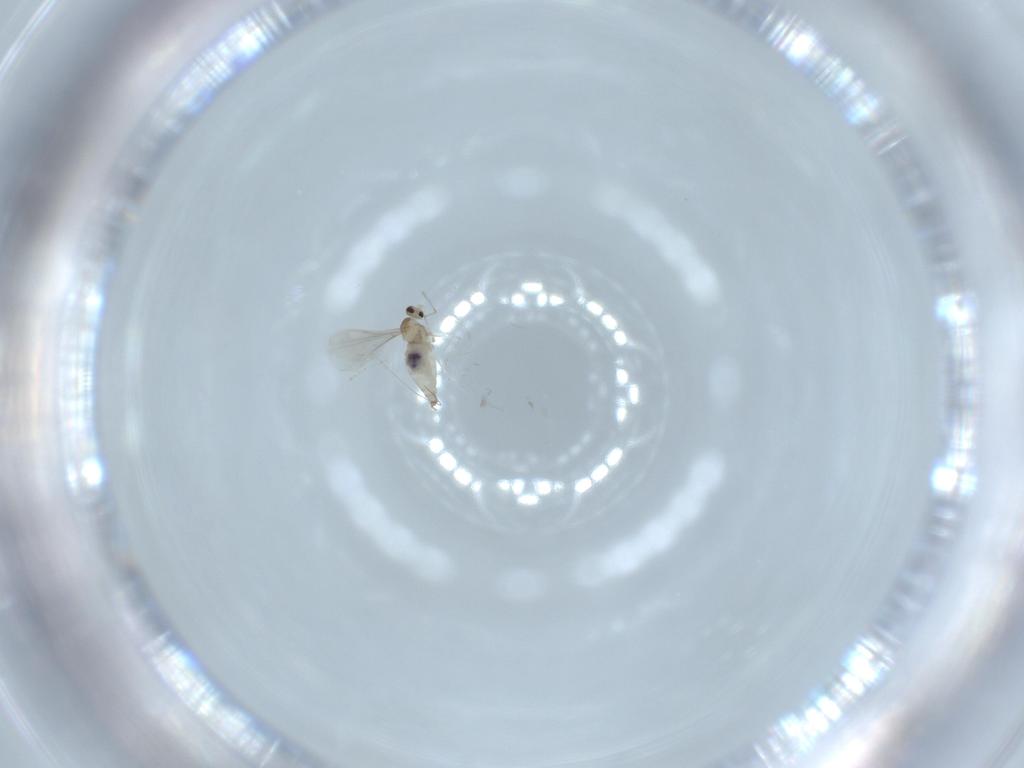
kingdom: Animalia
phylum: Arthropoda
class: Insecta
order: Diptera
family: Cecidomyiidae
